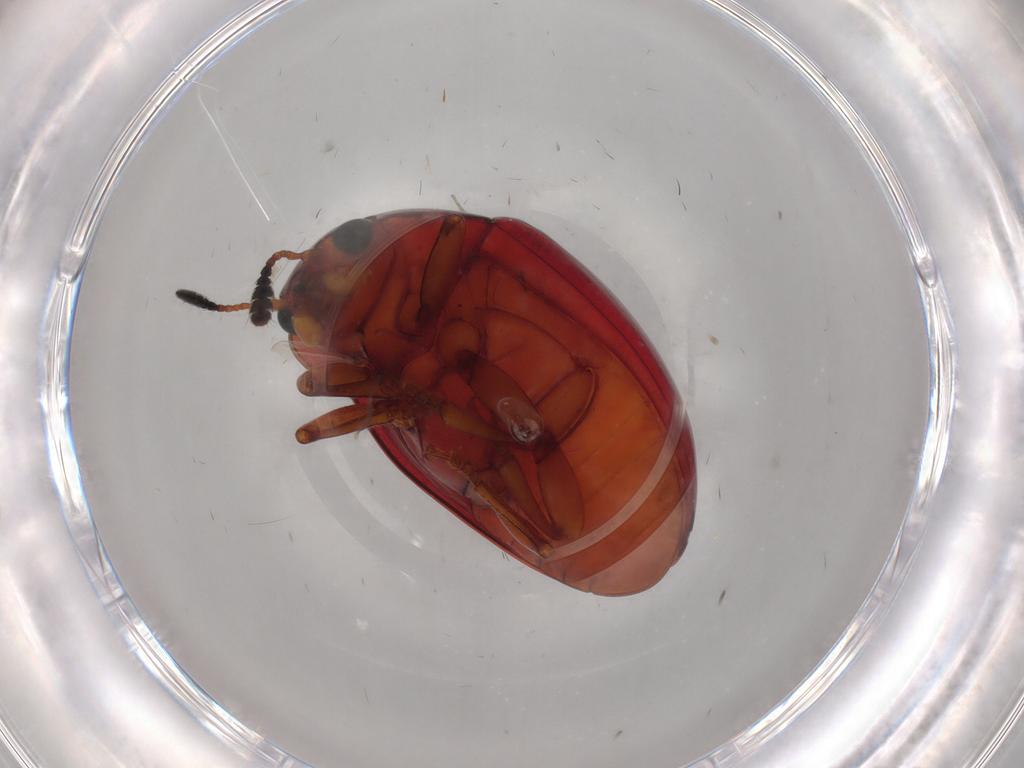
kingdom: Animalia
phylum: Arthropoda
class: Insecta
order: Coleoptera
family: Erotylidae
